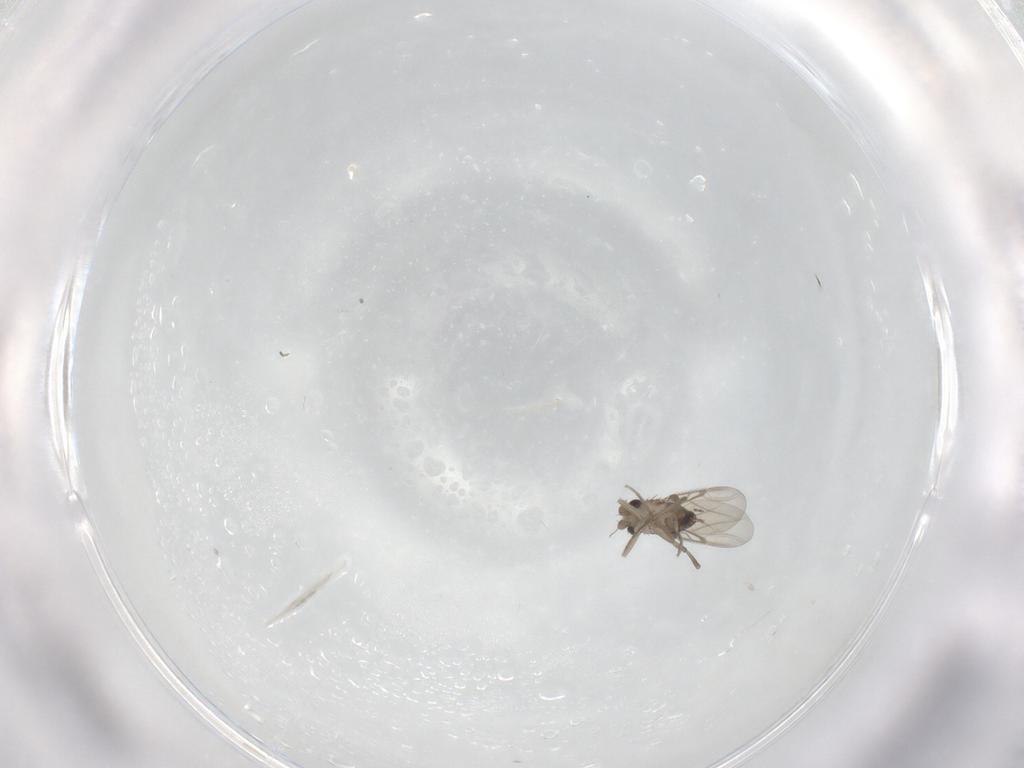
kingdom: Animalia
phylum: Arthropoda
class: Insecta
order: Diptera
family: Phoridae
